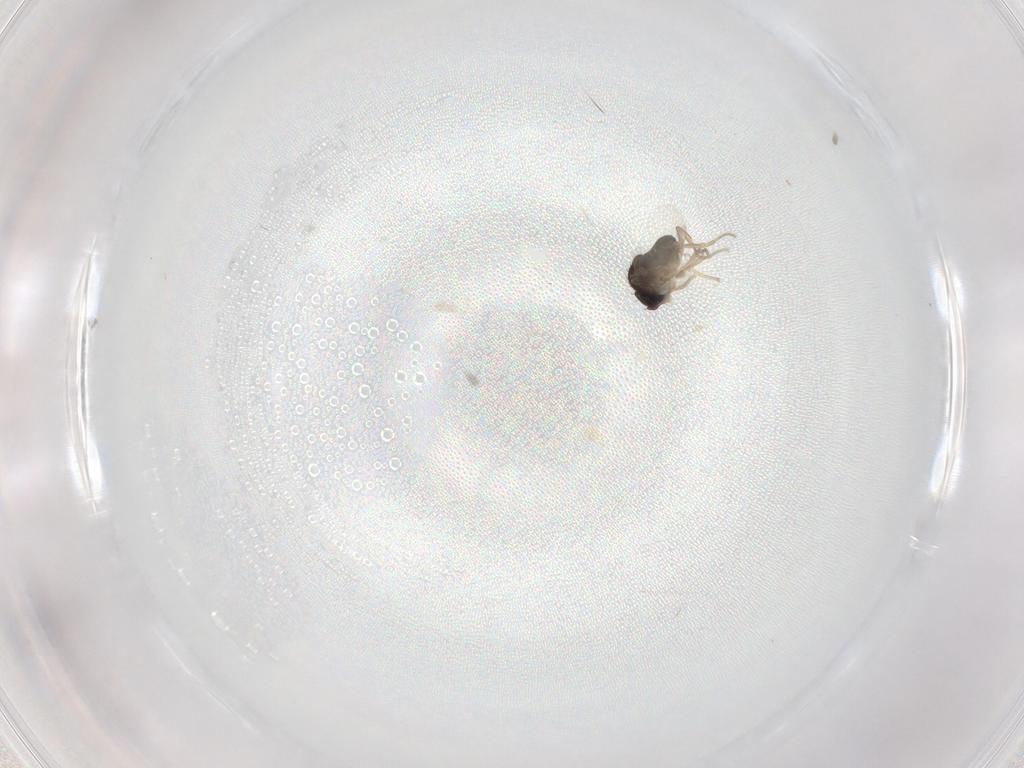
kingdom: Animalia
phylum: Arthropoda
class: Insecta
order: Diptera
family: Phoridae
